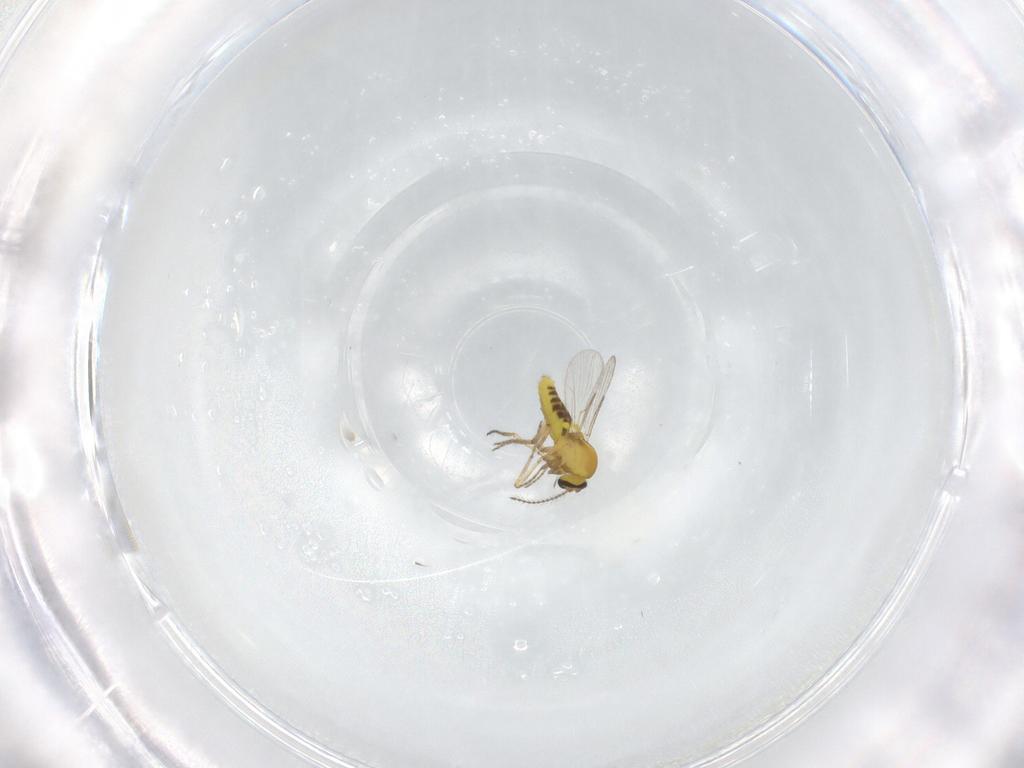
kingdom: Animalia
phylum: Arthropoda
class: Insecta
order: Diptera
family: Ceratopogonidae
